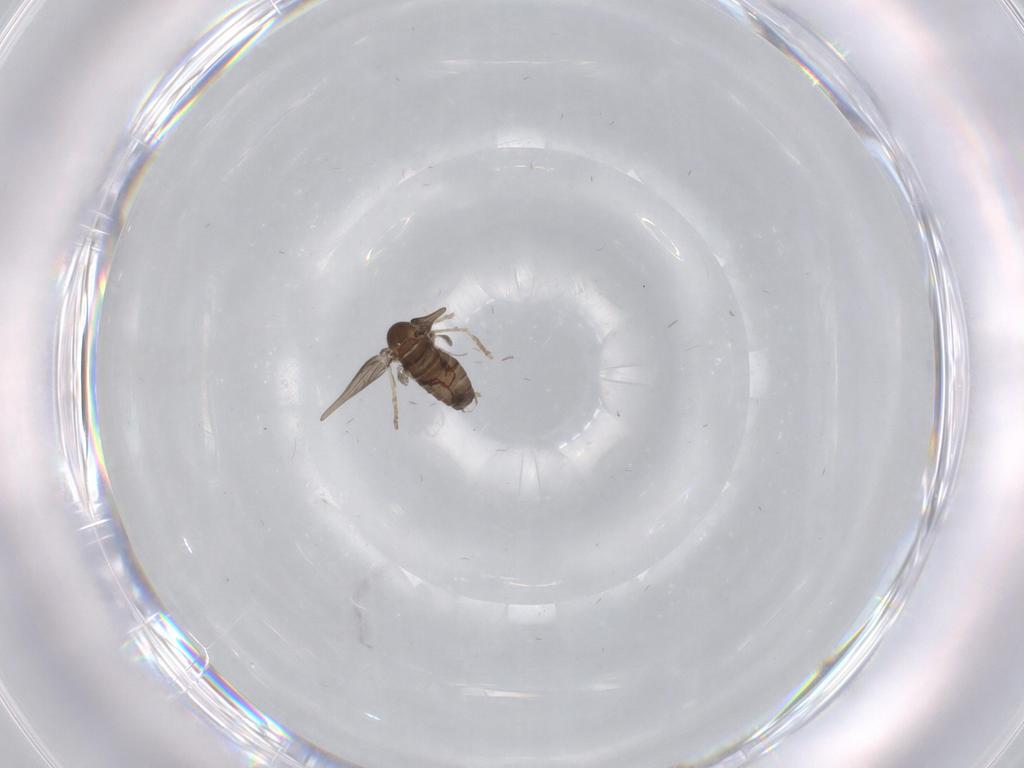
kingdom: Animalia
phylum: Arthropoda
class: Insecta
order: Diptera
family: Psychodidae
